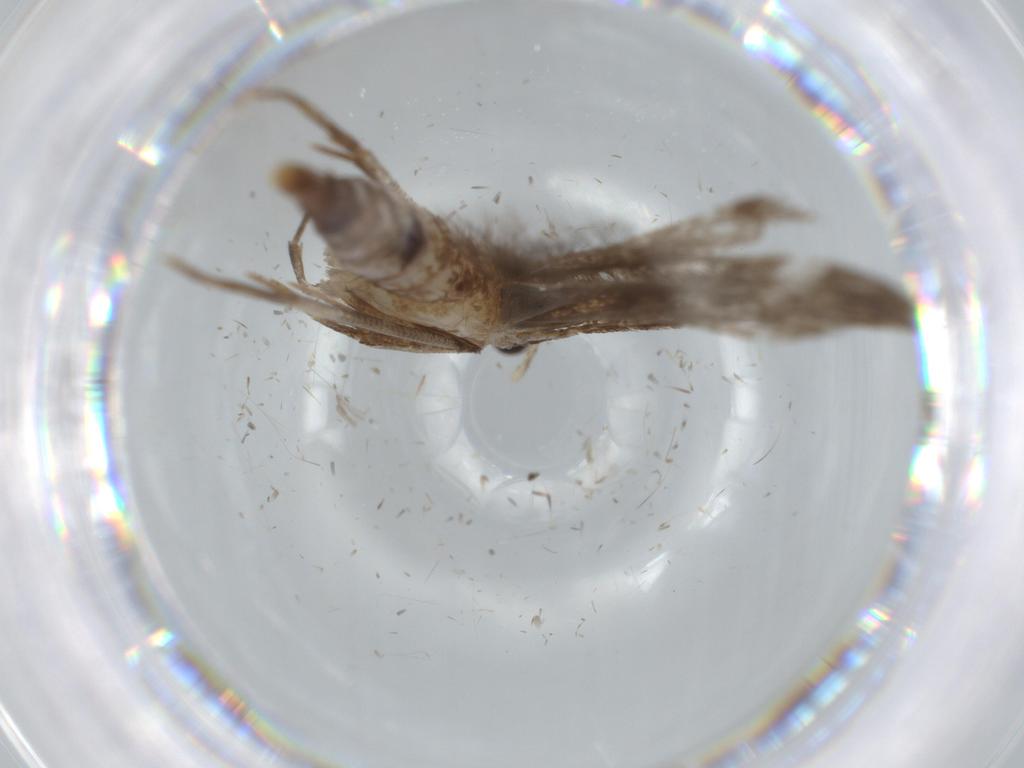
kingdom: Animalia
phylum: Arthropoda
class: Insecta
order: Lepidoptera
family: Tineidae
